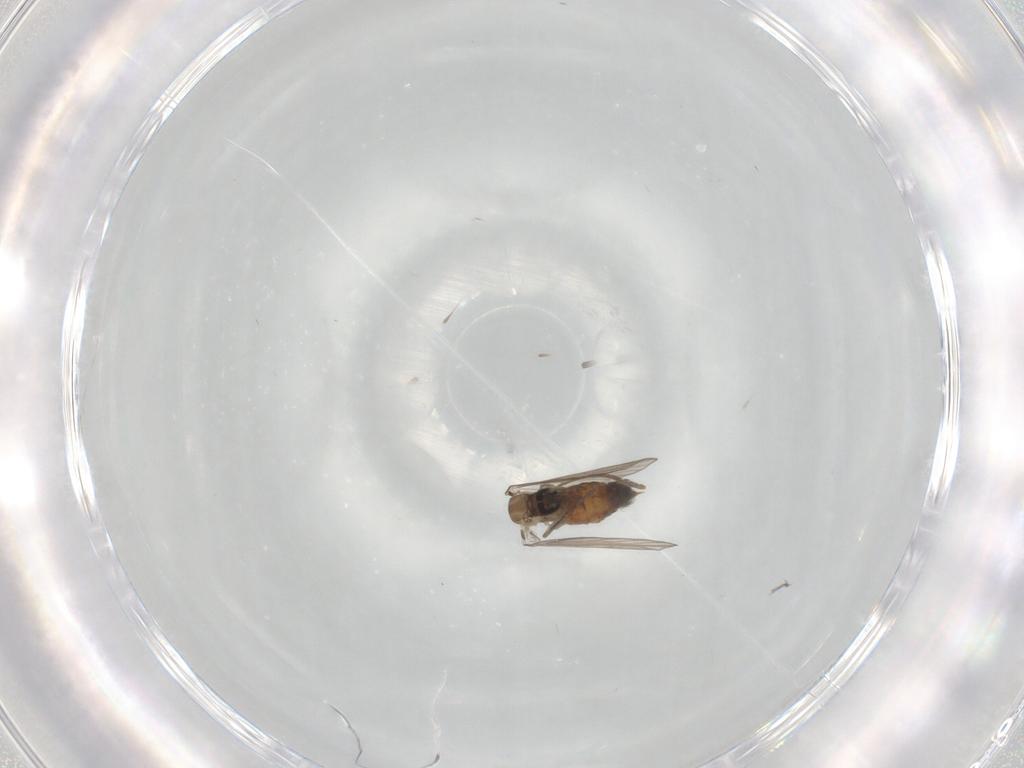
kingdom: Animalia
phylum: Arthropoda
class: Insecta
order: Diptera
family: Psychodidae
